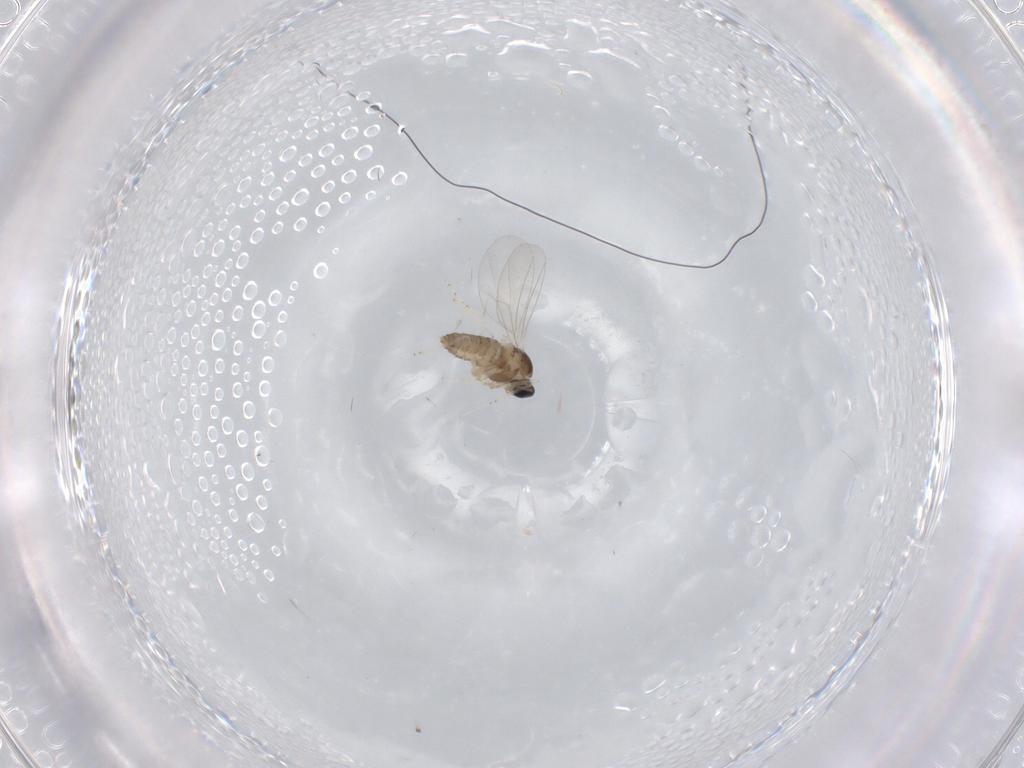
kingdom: Animalia
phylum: Arthropoda
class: Insecta
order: Diptera
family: Cecidomyiidae
